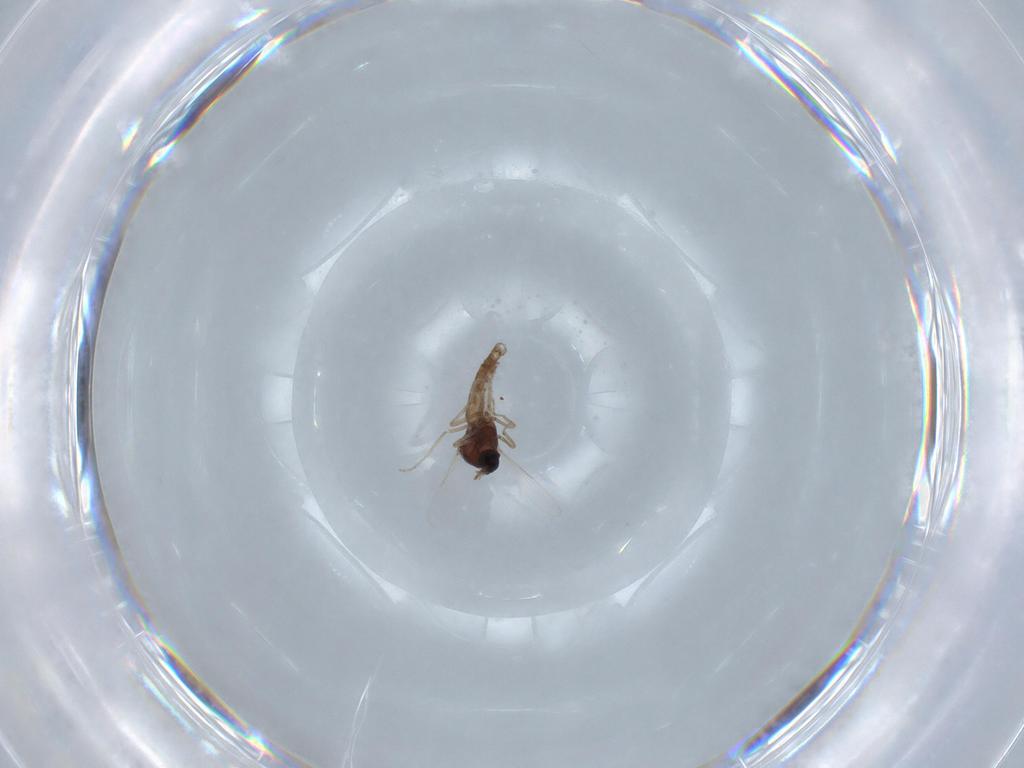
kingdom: Animalia
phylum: Arthropoda
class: Insecta
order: Diptera
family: Ceratopogonidae
